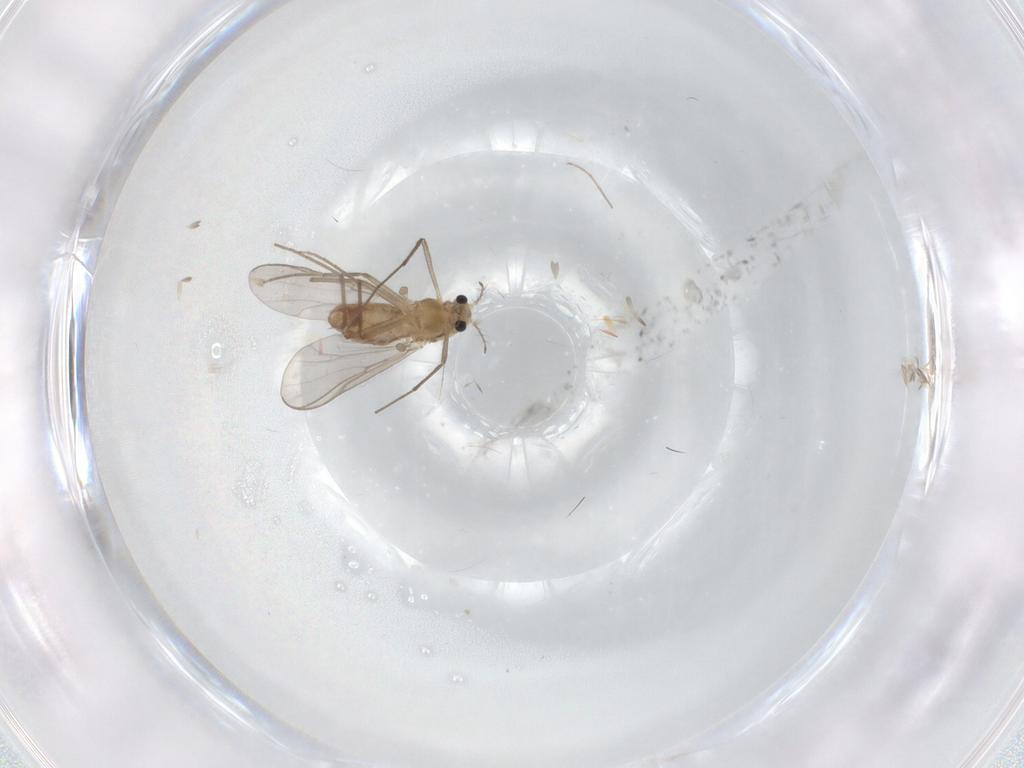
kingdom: Animalia
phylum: Arthropoda
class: Insecta
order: Diptera
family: Chironomidae
